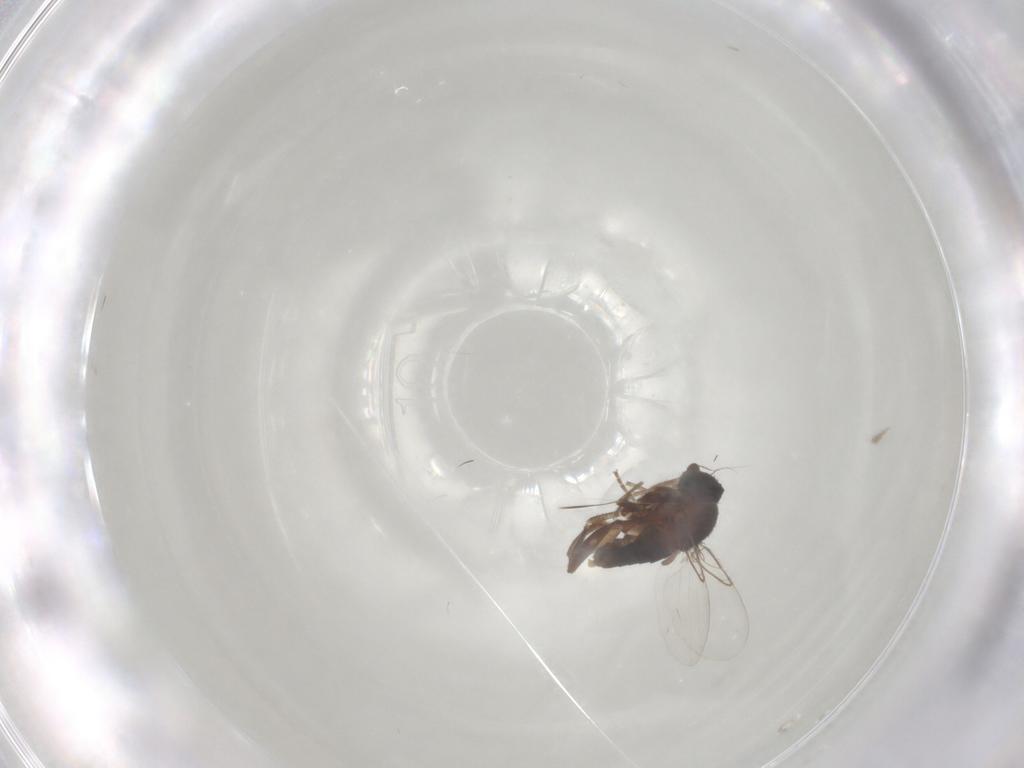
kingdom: Animalia
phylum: Arthropoda
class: Insecta
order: Diptera
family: Phoridae
